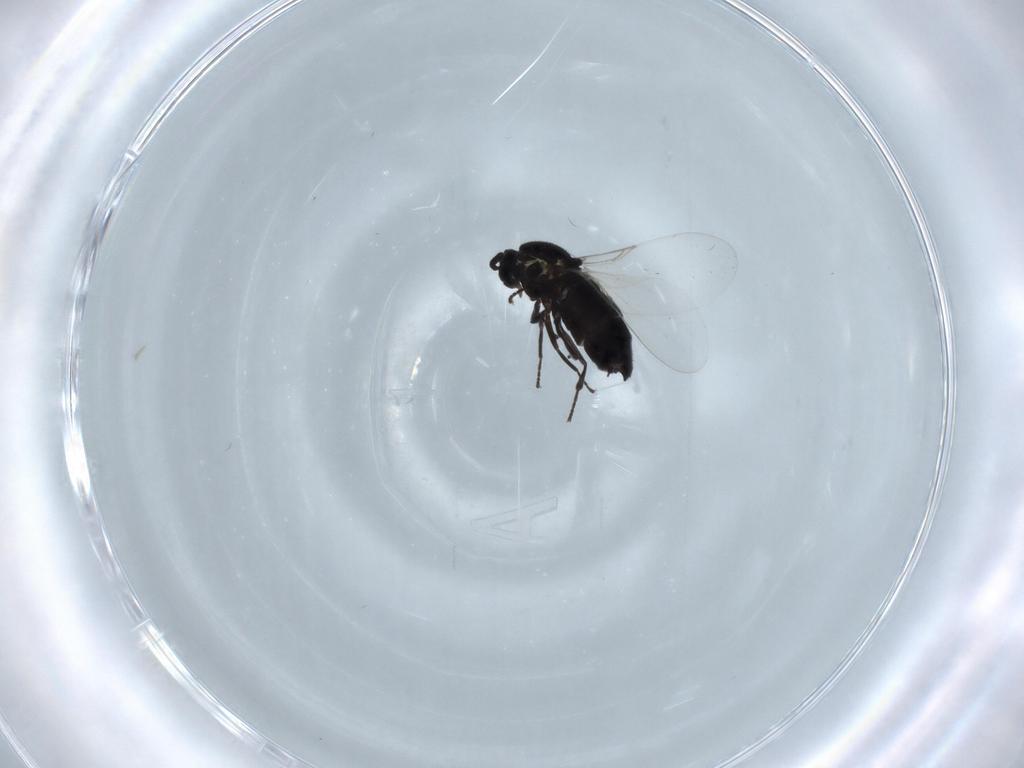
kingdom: Animalia
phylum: Arthropoda
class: Insecta
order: Diptera
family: Scatopsidae
